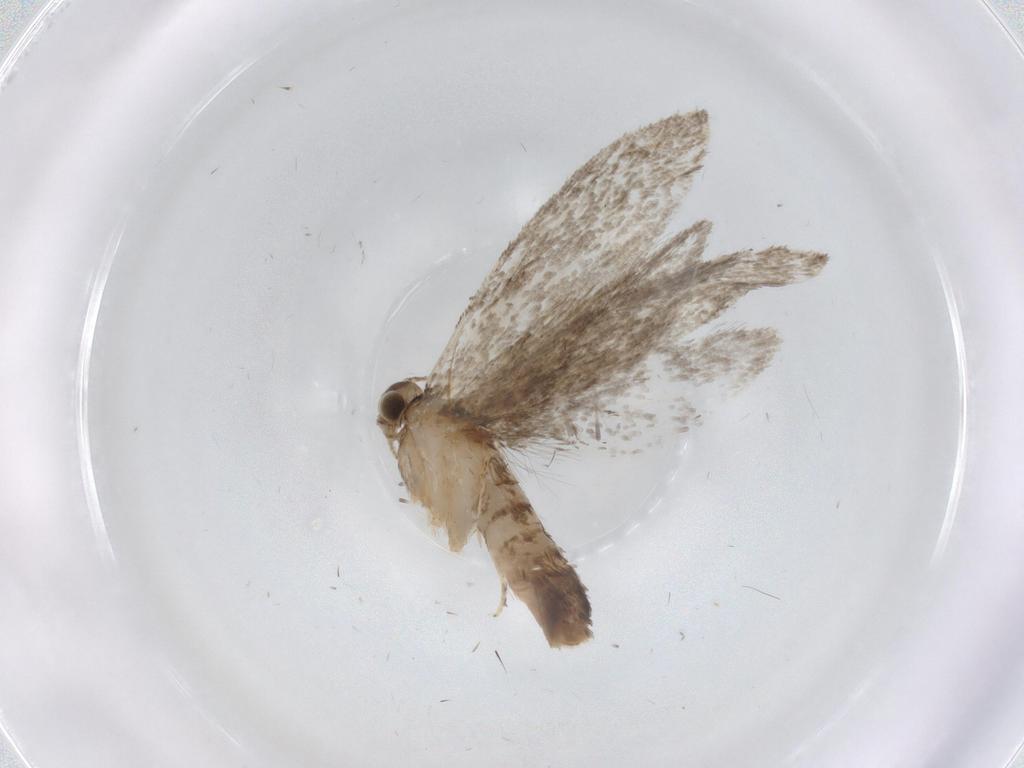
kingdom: Animalia
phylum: Arthropoda
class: Insecta
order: Lepidoptera
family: Tineidae
